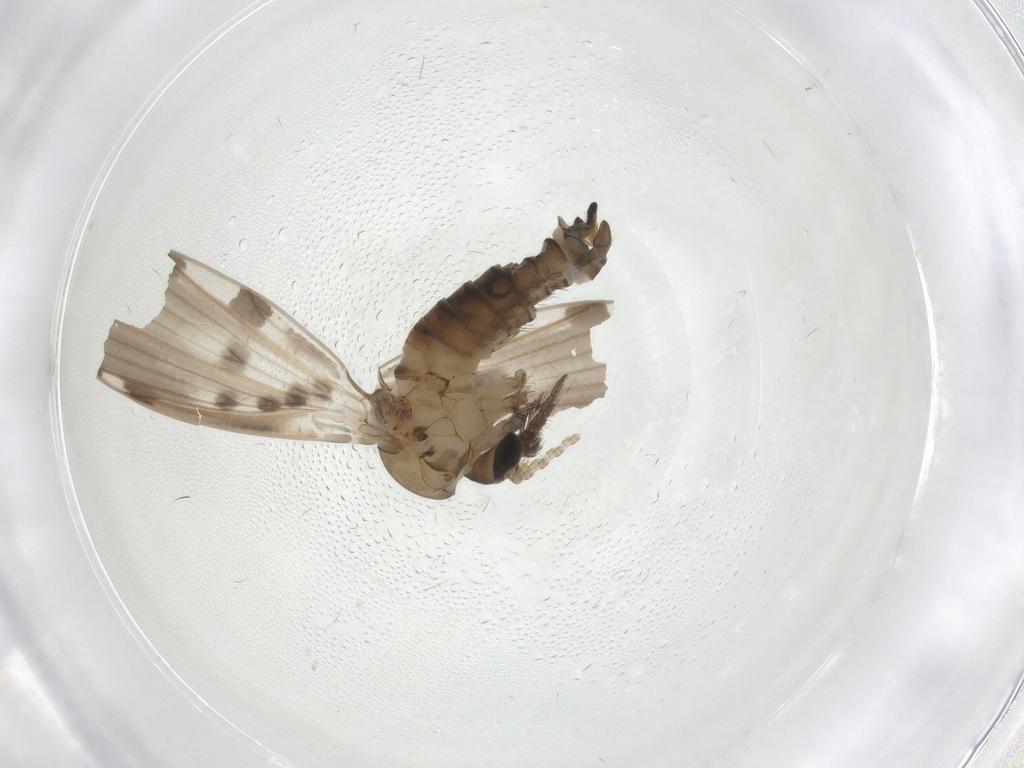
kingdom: Animalia
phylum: Arthropoda
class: Insecta
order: Diptera
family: Psychodidae
